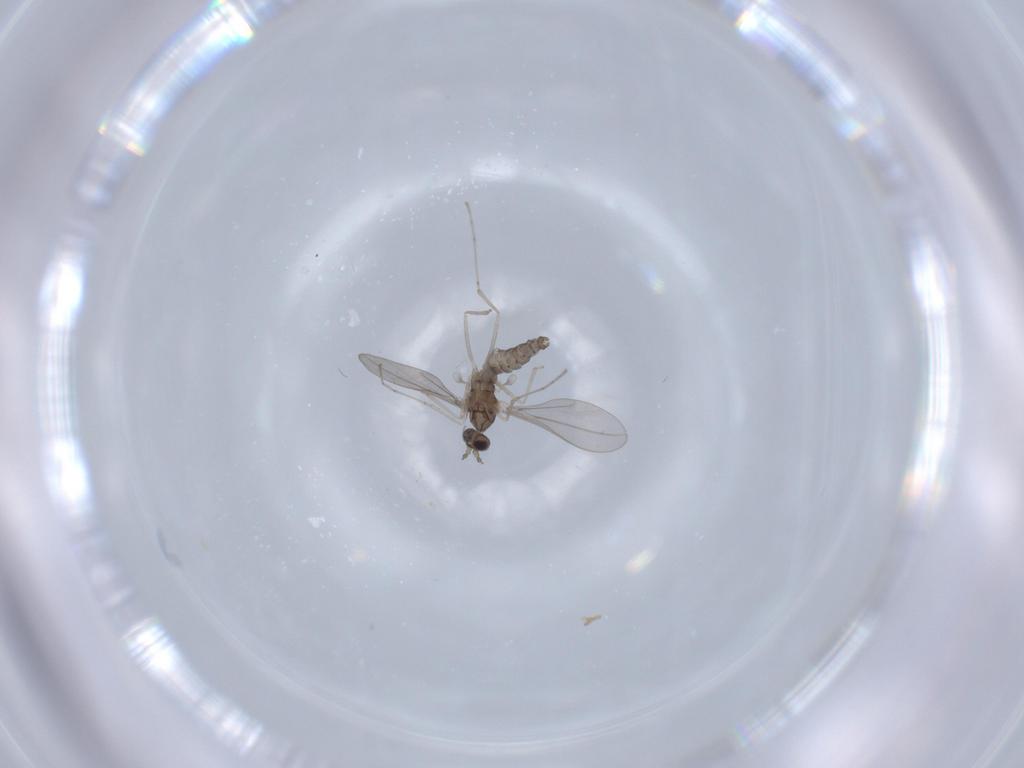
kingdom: Animalia
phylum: Arthropoda
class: Insecta
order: Diptera
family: Cecidomyiidae
